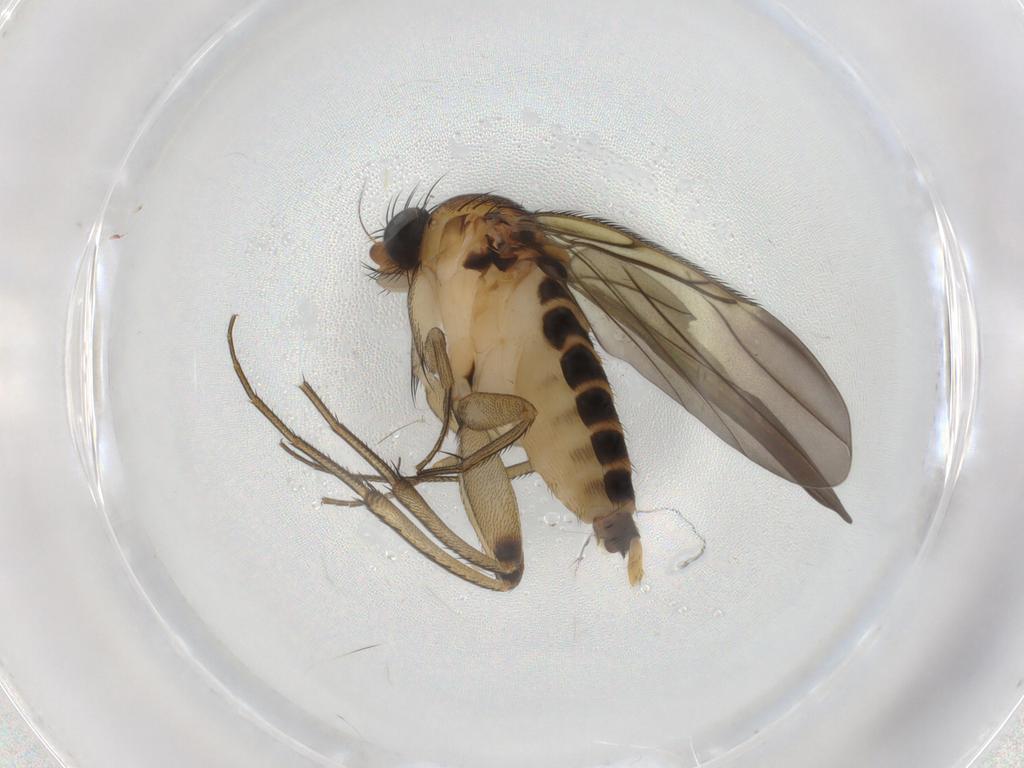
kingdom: Animalia
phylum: Arthropoda
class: Insecta
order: Diptera
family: Phoridae
